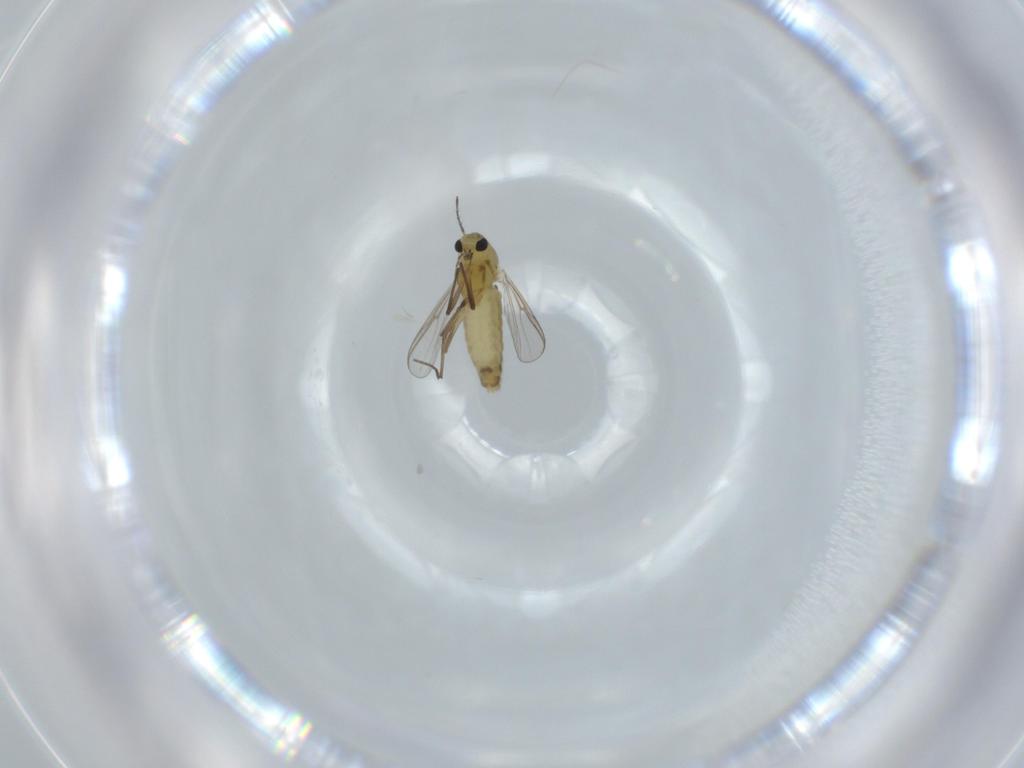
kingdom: Animalia
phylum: Arthropoda
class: Insecta
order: Diptera
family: Chironomidae
